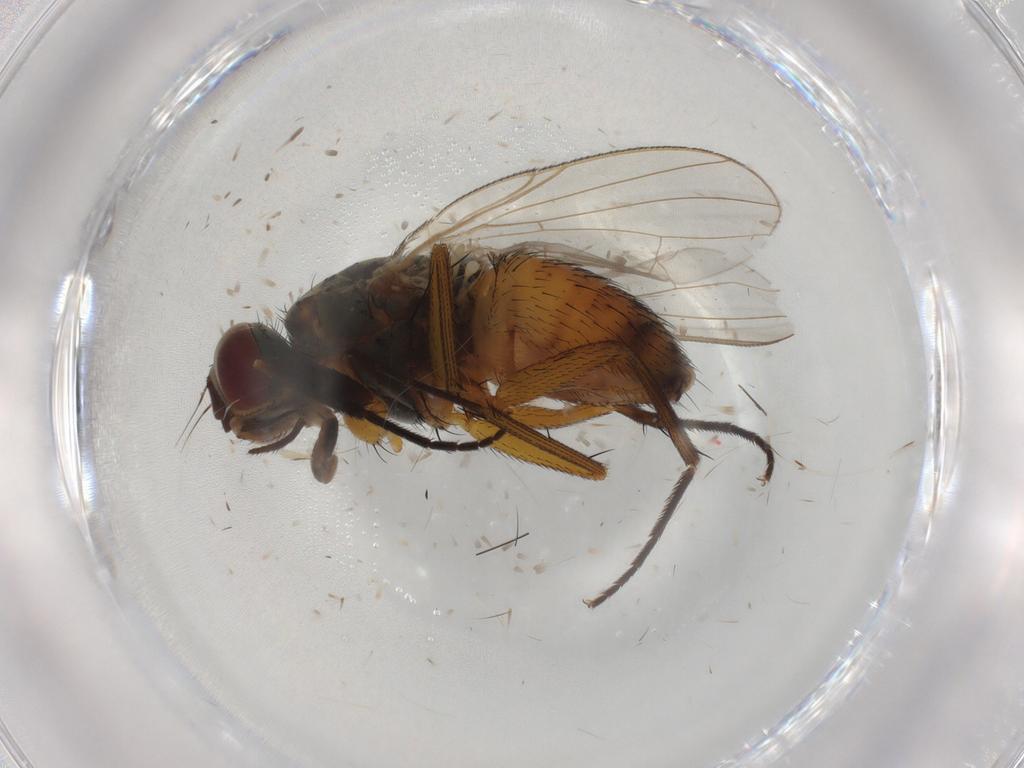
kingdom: Animalia
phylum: Arthropoda
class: Insecta
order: Diptera
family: Muscidae
